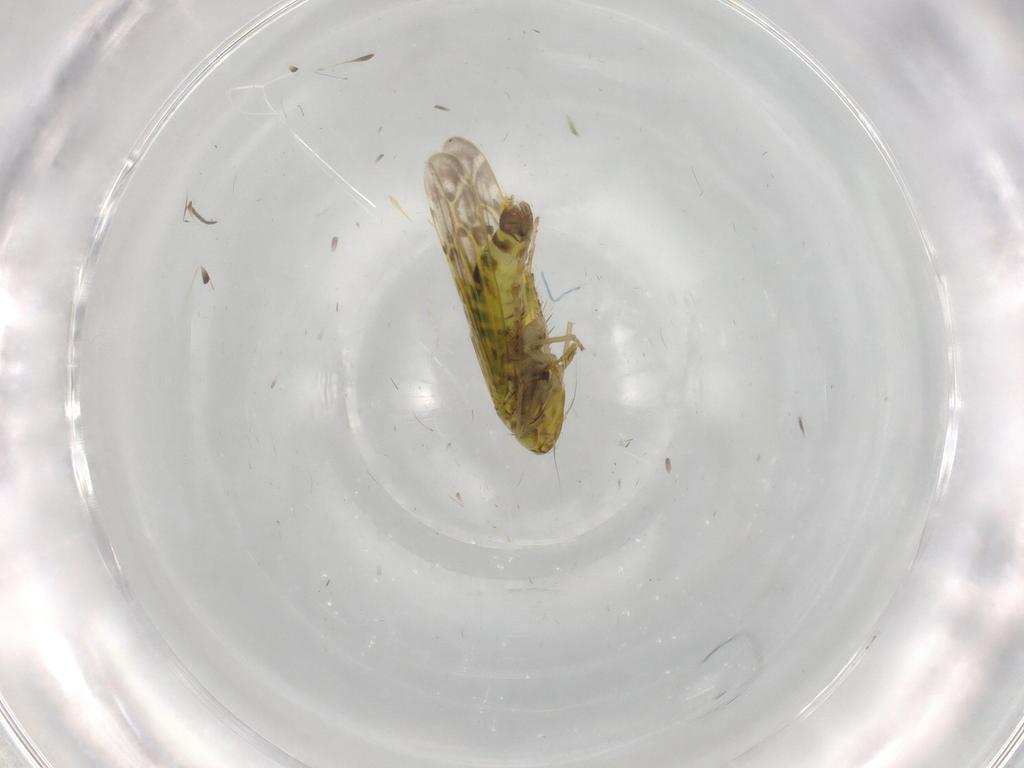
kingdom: Animalia
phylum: Arthropoda
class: Insecta
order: Hemiptera
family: Cicadellidae
